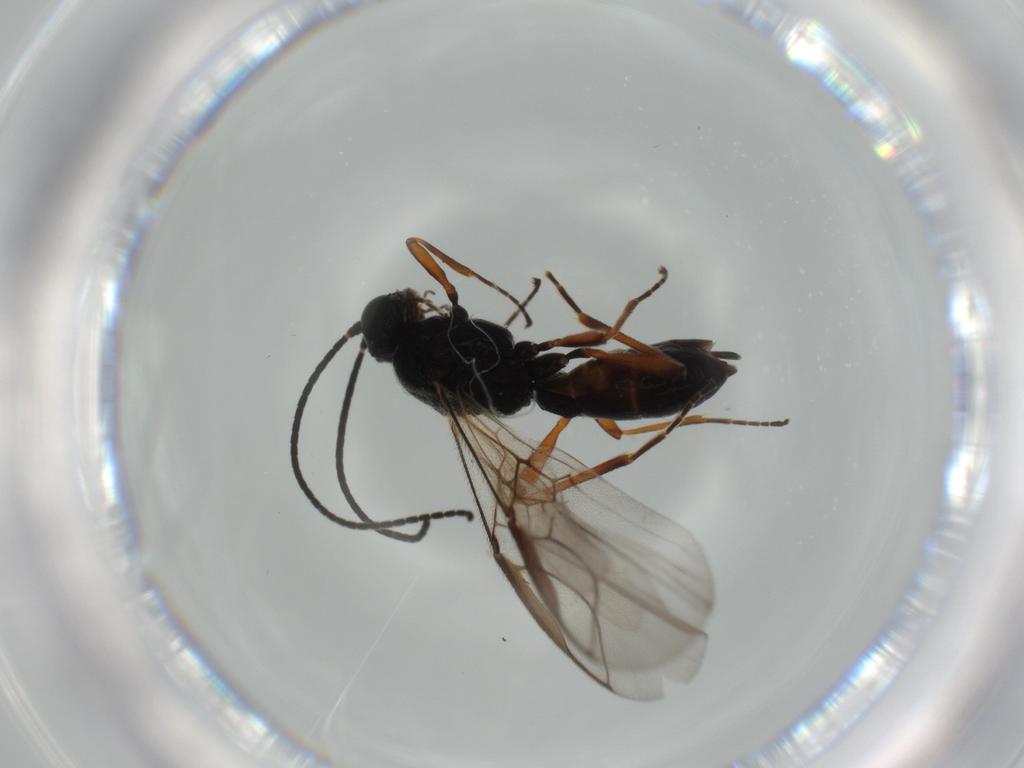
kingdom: Animalia
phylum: Arthropoda
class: Insecta
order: Hymenoptera
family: Braconidae
